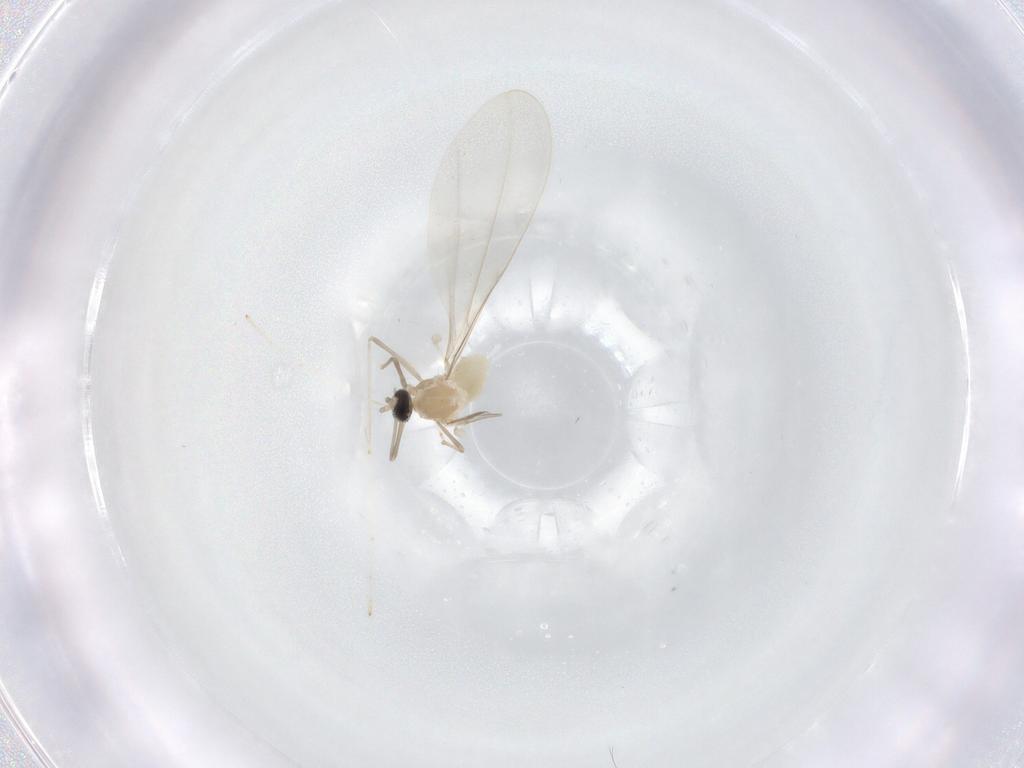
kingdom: Animalia
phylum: Arthropoda
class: Insecta
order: Diptera
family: Cecidomyiidae
